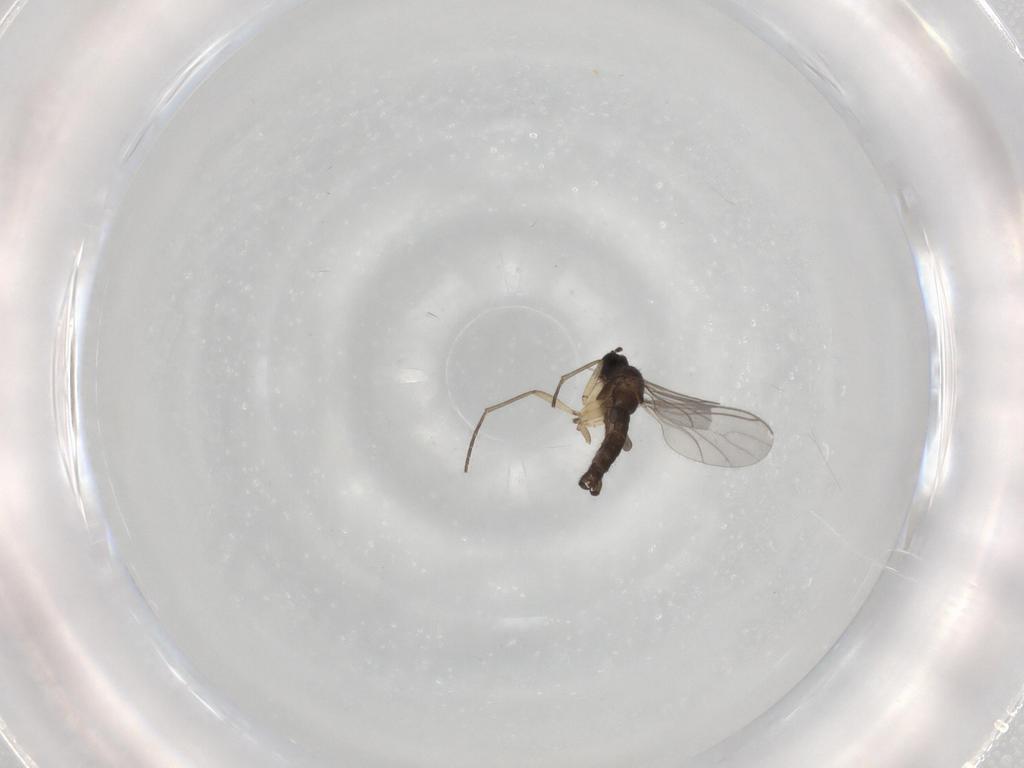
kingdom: Animalia
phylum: Arthropoda
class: Insecta
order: Diptera
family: Sciaridae
